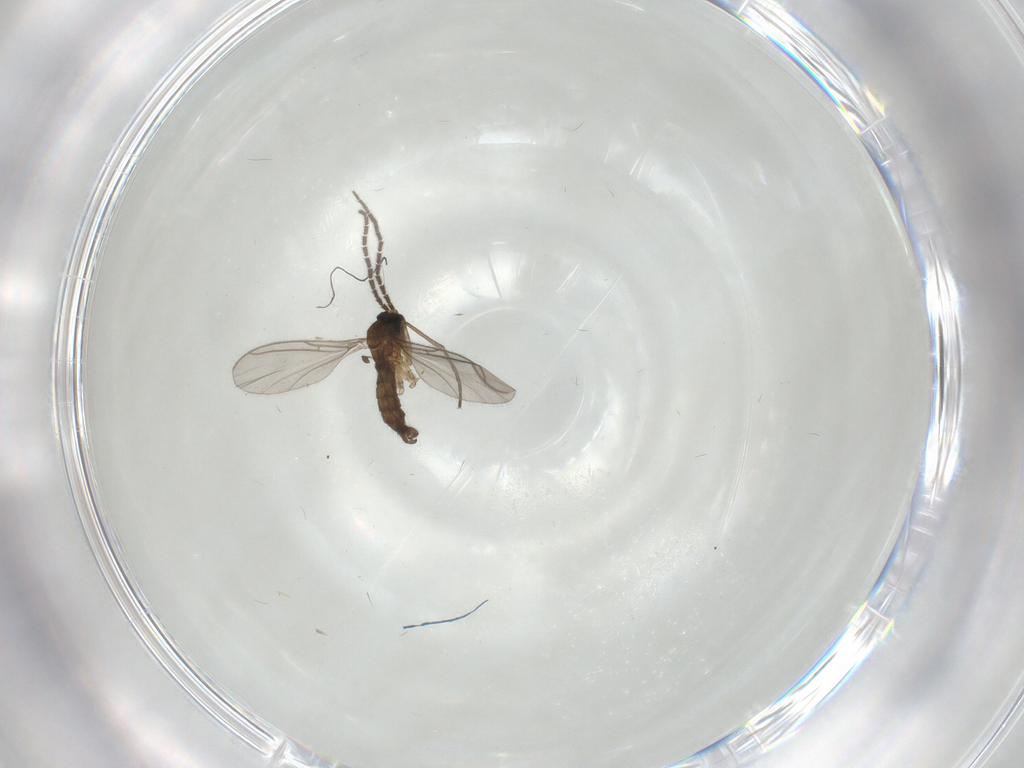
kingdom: Animalia
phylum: Arthropoda
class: Insecta
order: Diptera
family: Sciaridae
